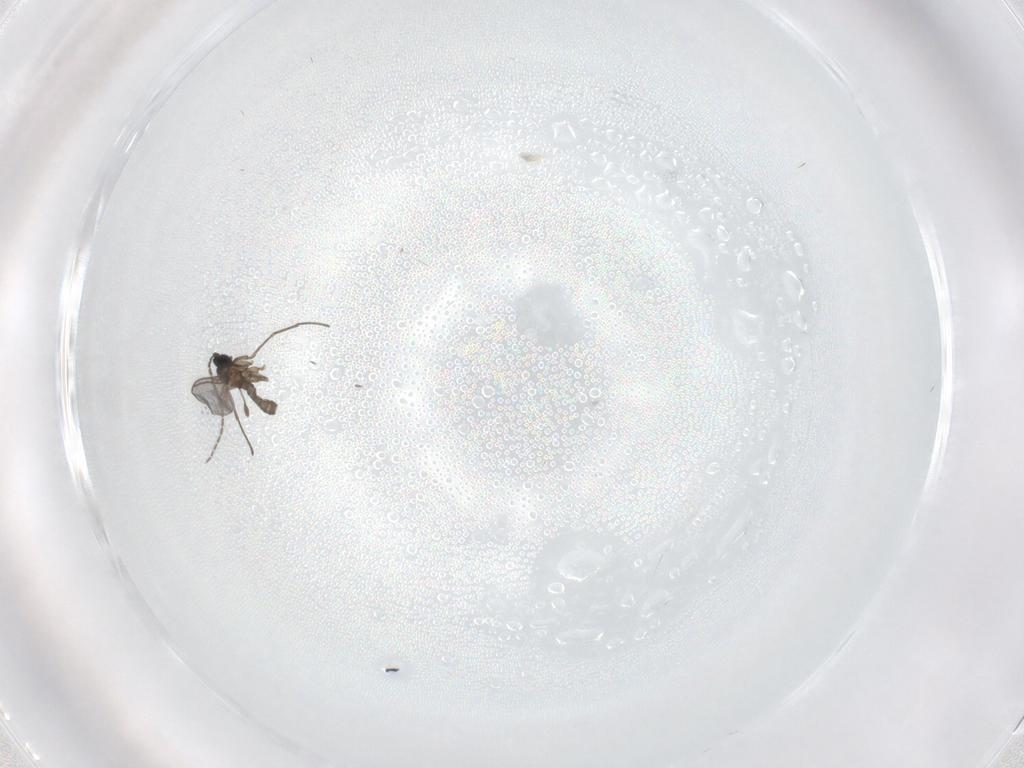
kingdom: Animalia
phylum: Arthropoda
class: Insecta
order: Diptera
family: Sciaridae
